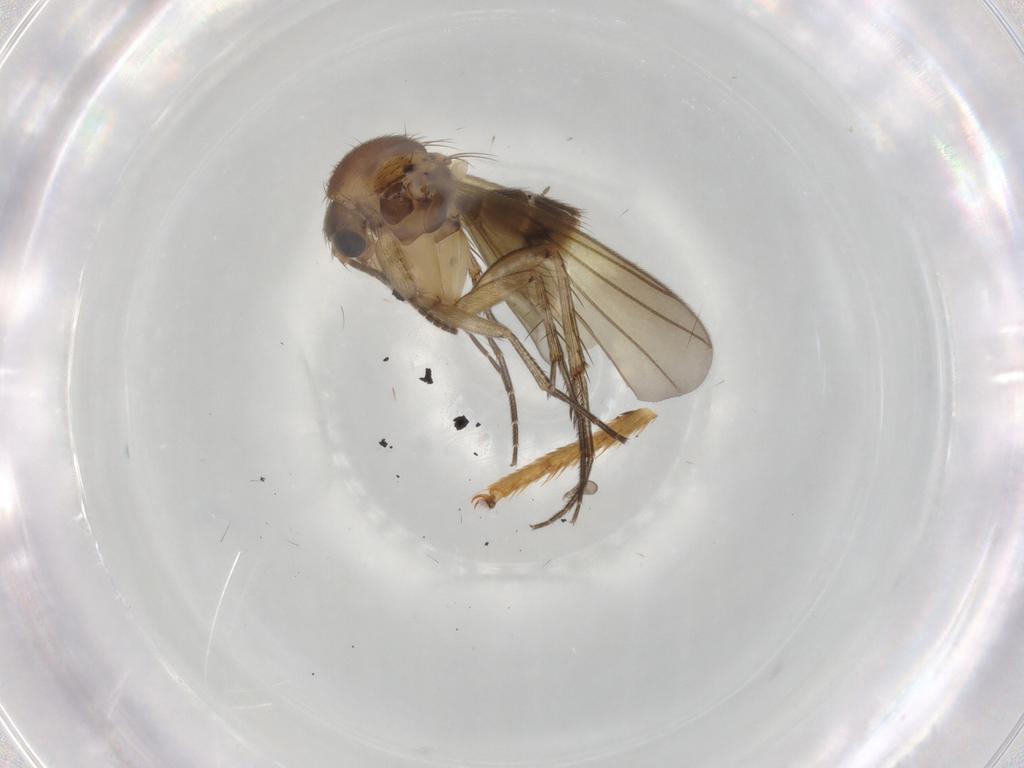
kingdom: Animalia
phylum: Arthropoda
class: Insecta
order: Diptera
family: Mycetophilidae
